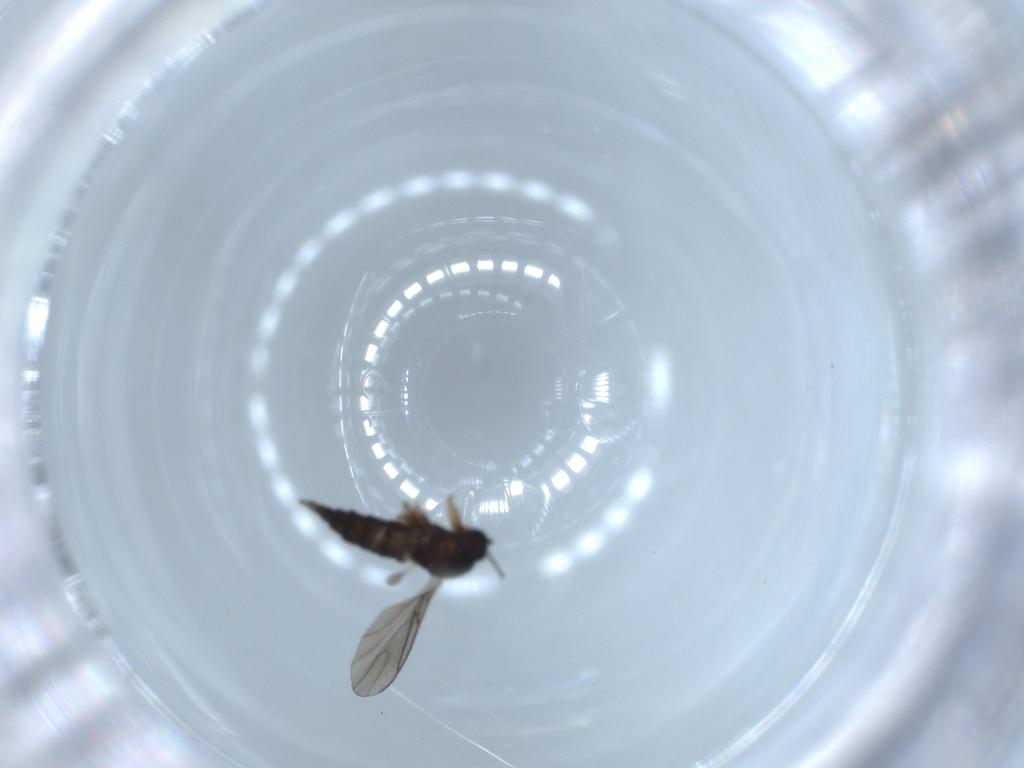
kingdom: Animalia
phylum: Arthropoda
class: Insecta
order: Diptera
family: Sciaridae
